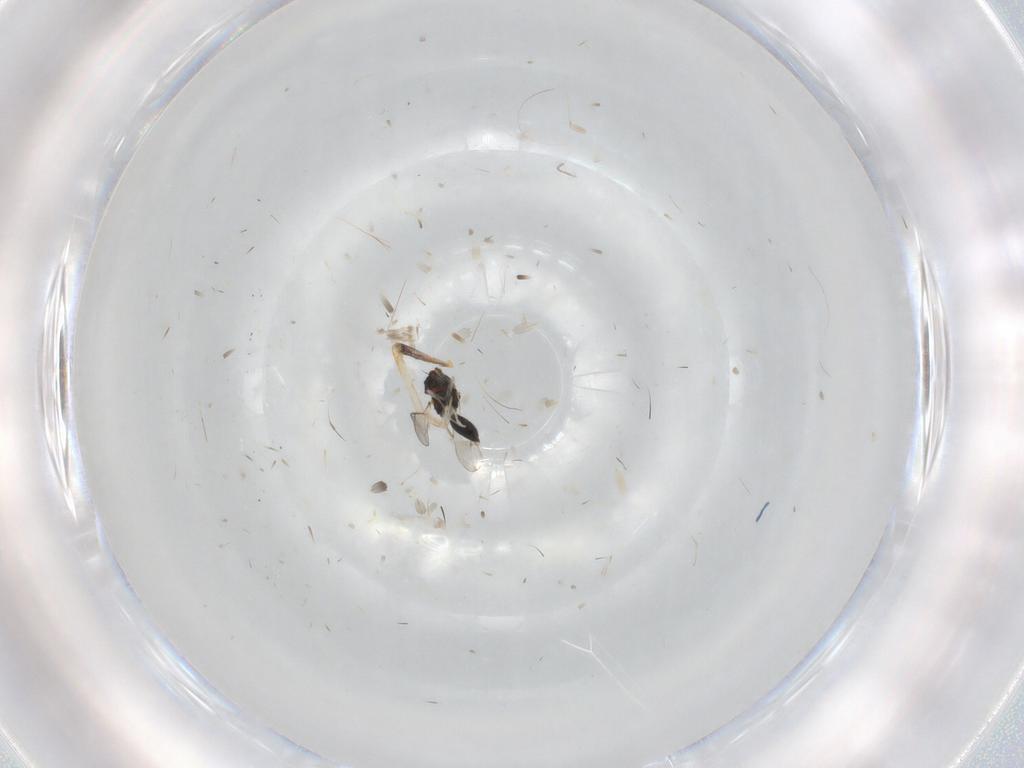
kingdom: Animalia
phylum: Arthropoda
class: Insecta
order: Hymenoptera
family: Eulophidae
